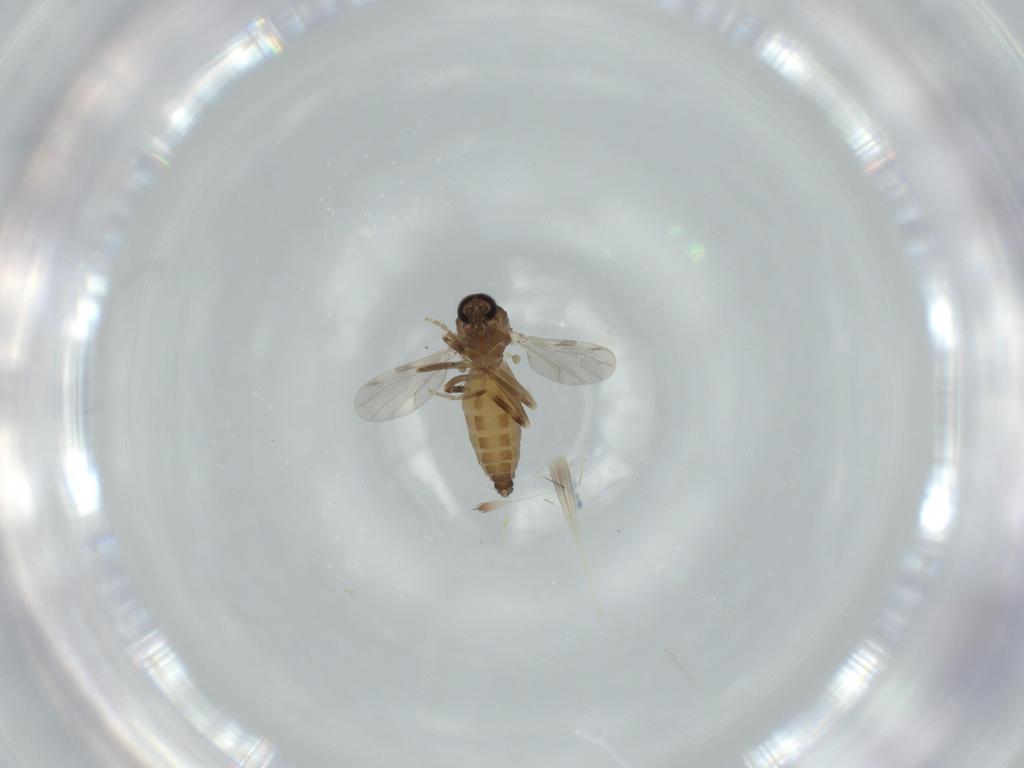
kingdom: Animalia
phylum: Arthropoda
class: Insecta
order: Diptera
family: Ceratopogonidae
